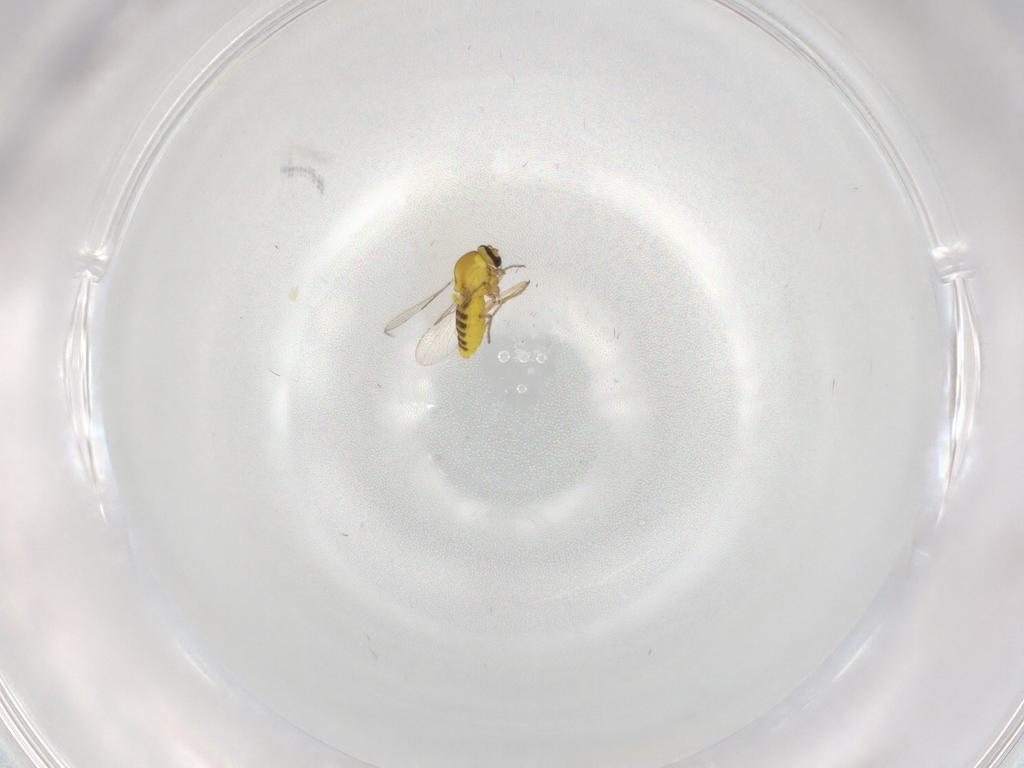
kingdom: Animalia
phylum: Arthropoda
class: Insecta
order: Diptera
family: Ceratopogonidae
